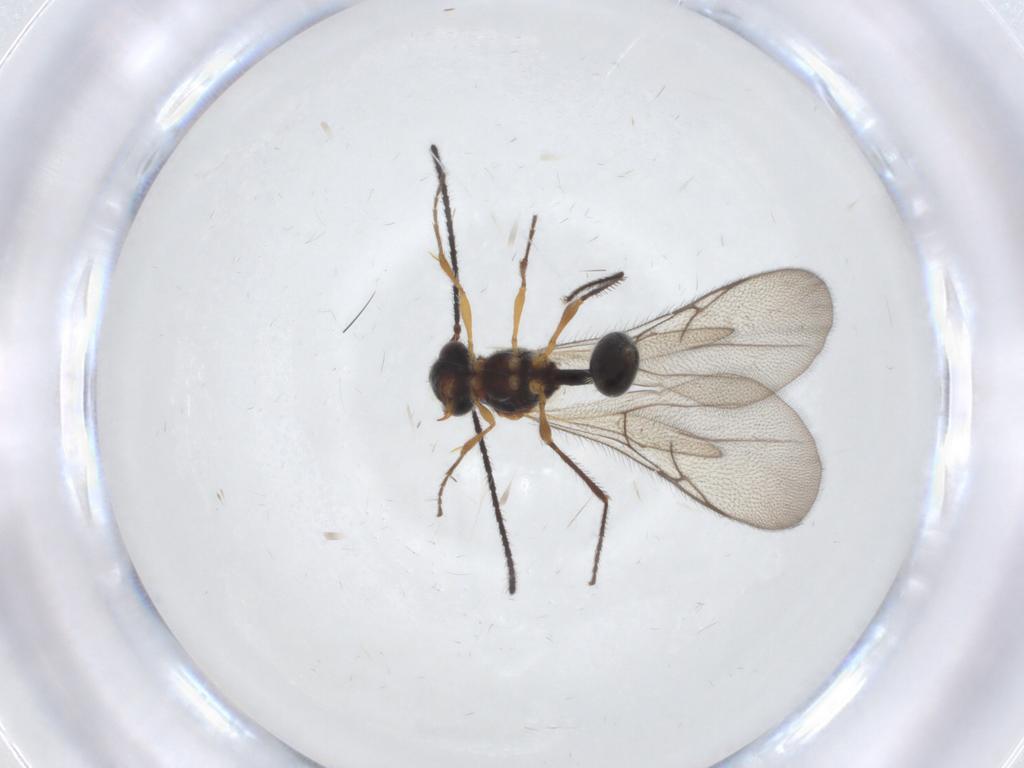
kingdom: Animalia
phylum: Arthropoda
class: Insecta
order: Hymenoptera
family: Diapriidae
